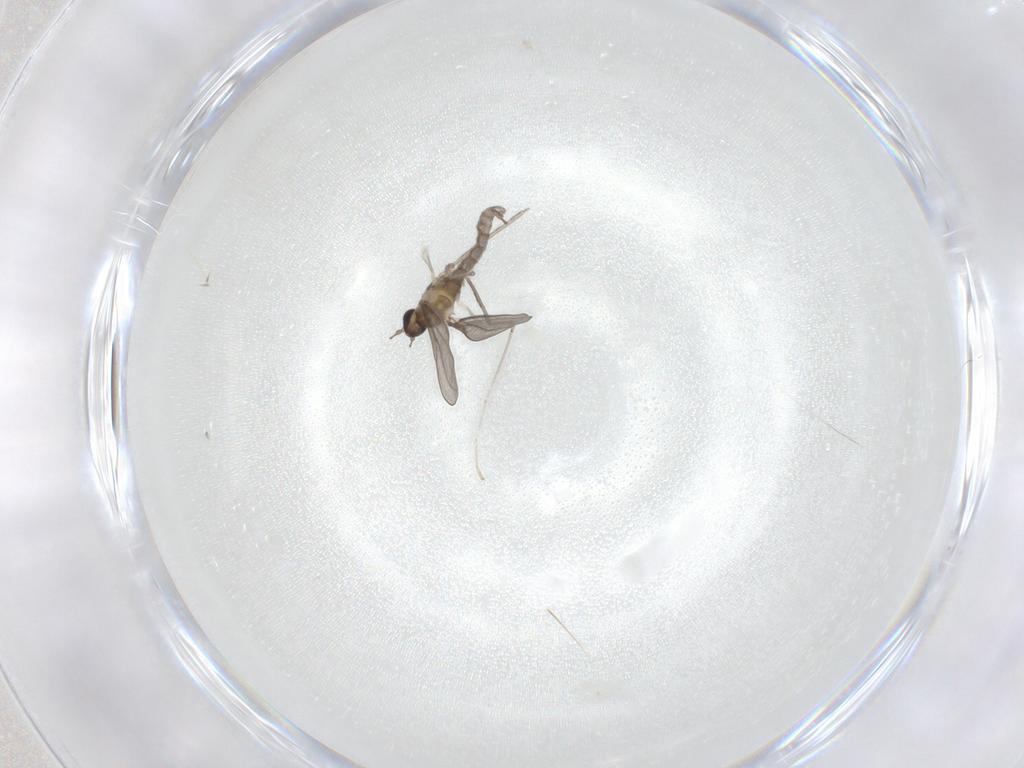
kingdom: Animalia
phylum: Arthropoda
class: Insecta
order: Diptera
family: Cecidomyiidae
